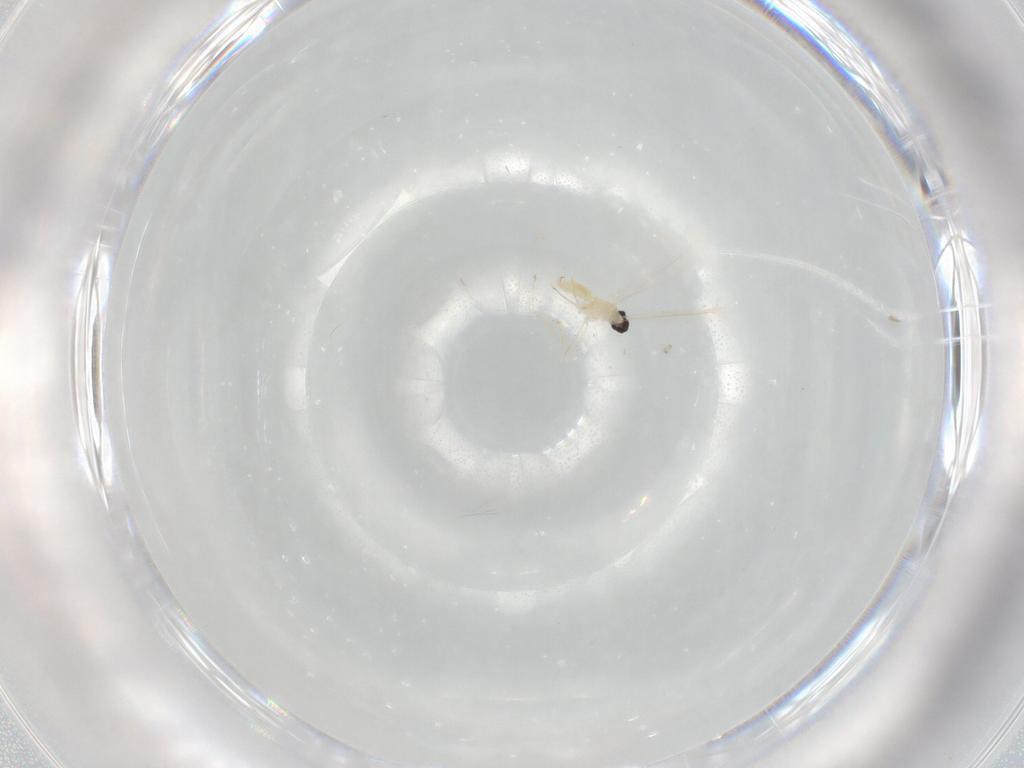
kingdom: Animalia
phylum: Arthropoda
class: Insecta
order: Diptera
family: Cecidomyiidae
